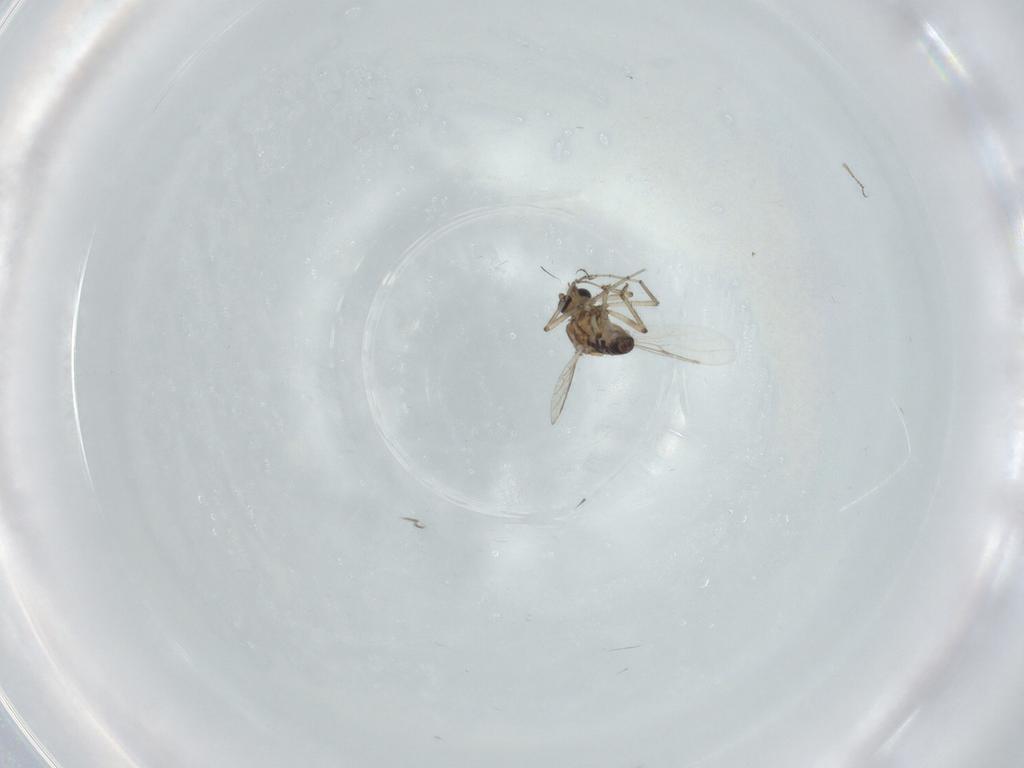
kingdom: Animalia
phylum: Arthropoda
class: Insecta
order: Diptera
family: Ceratopogonidae
